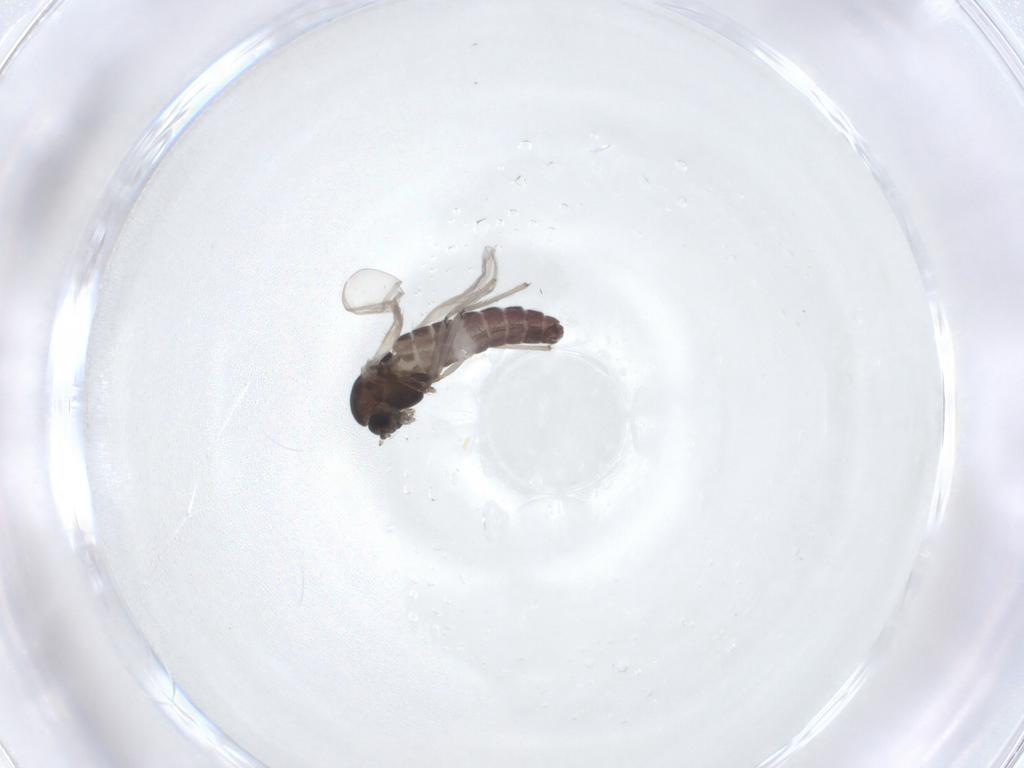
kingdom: Animalia
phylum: Arthropoda
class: Insecta
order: Diptera
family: Chironomidae
